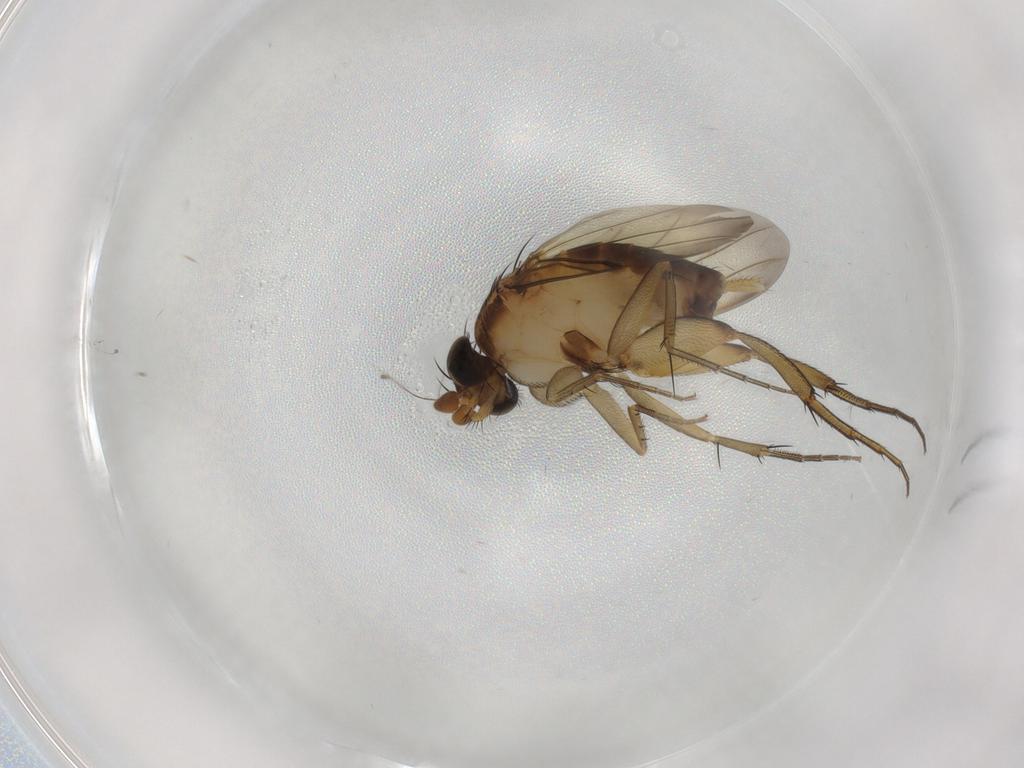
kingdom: Animalia
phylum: Arthropoda
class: Insecta
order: Diptera
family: Phoridae
